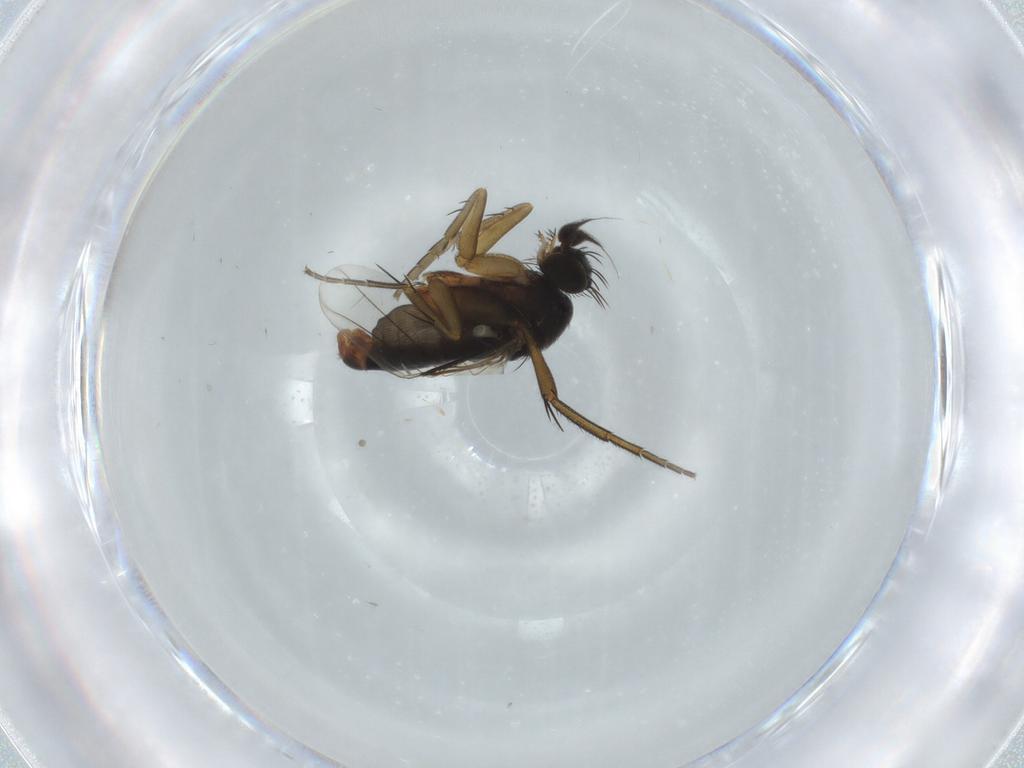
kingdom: Animalia
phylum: Arthropoda
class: Insecta
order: Diptera
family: Phoridae
